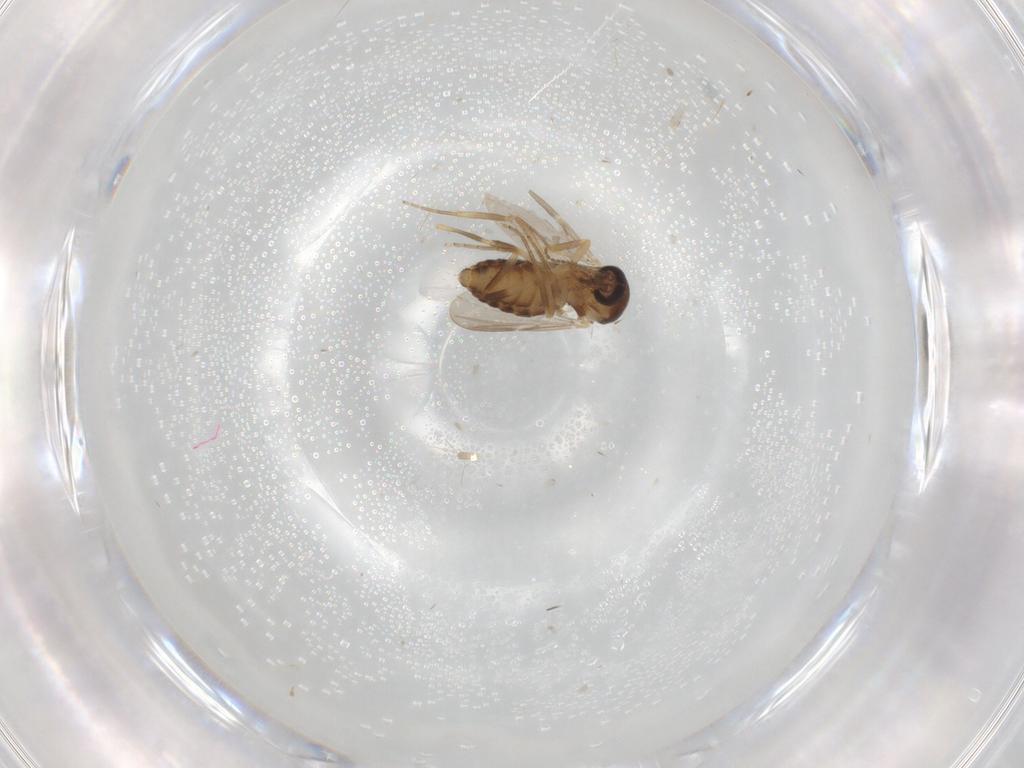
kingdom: Animalia
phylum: Arthropoda
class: Insecta
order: Diptera
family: Ceratopogonidae
